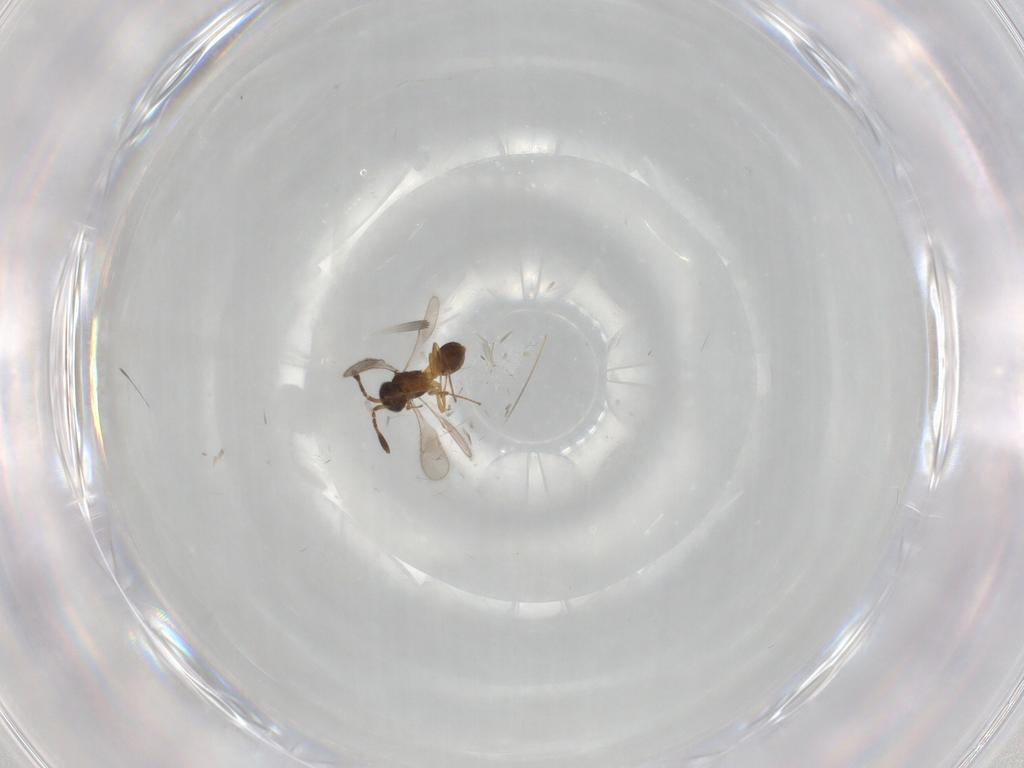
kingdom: Animalia
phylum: Arthropoda
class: Insecta
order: Hymenoptera
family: Scelionidae
